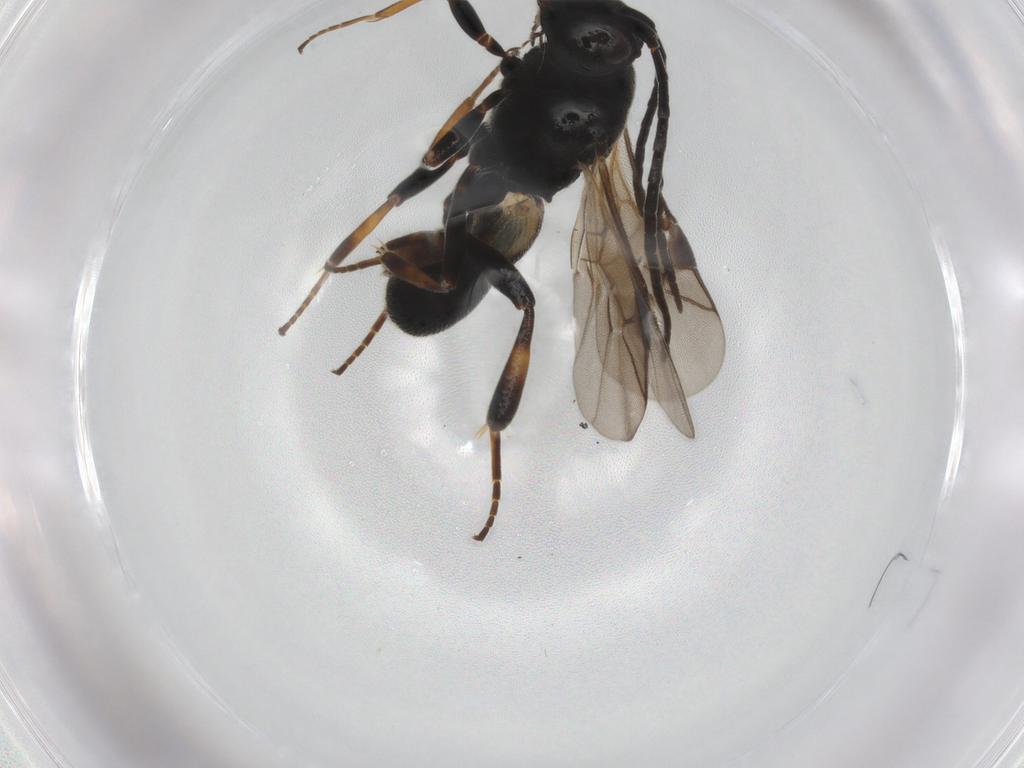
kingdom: Animalia
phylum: Arthropoda
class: Insecta
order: Hymenoptera
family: Braconidae
